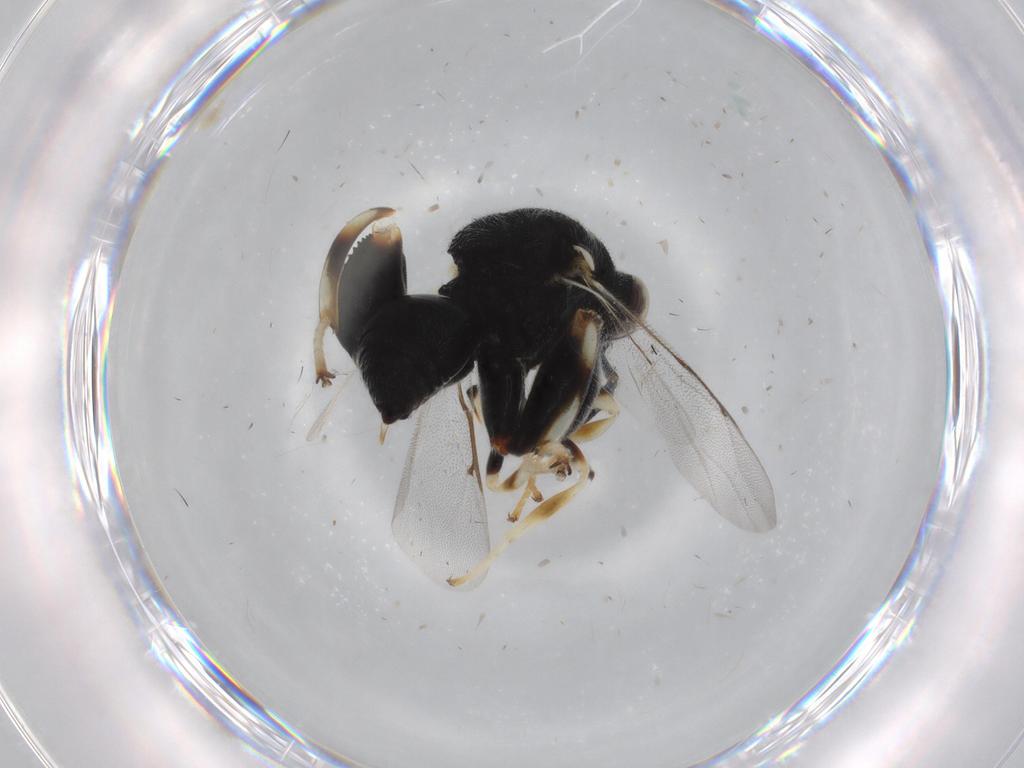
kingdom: Animalia
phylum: Arthropoda
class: Insecta
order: Hymenoptera
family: Chalcididae
